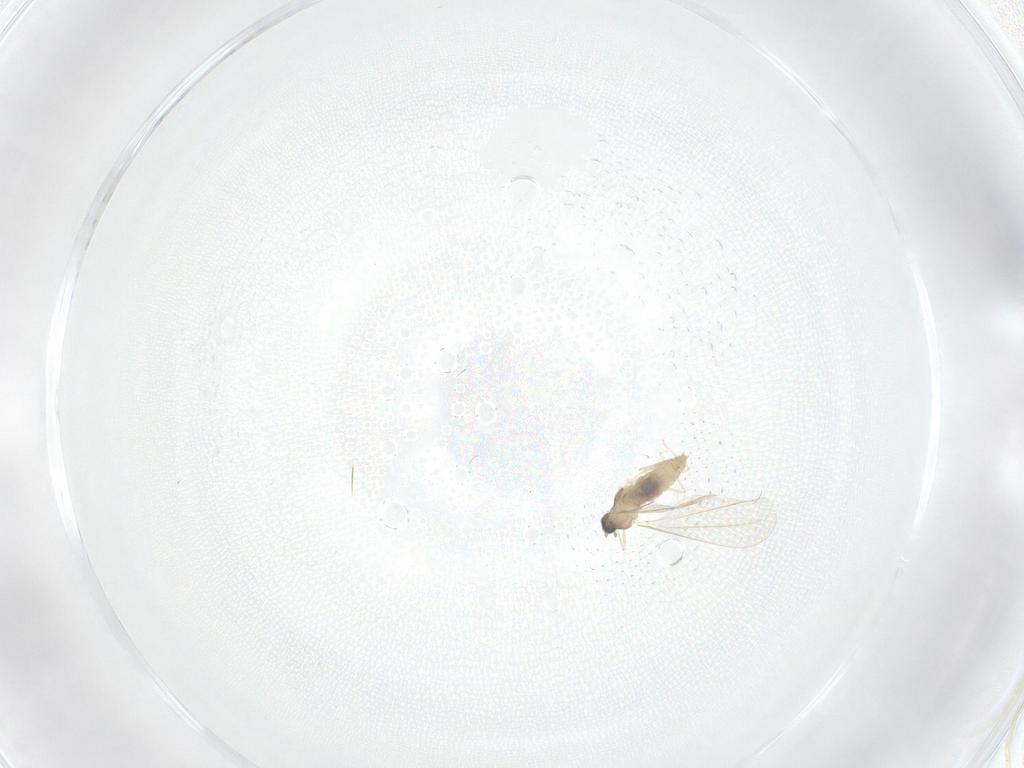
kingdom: Animalia
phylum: Arthropoda
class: Insecta
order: Diptera
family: Cecidomyiidae
